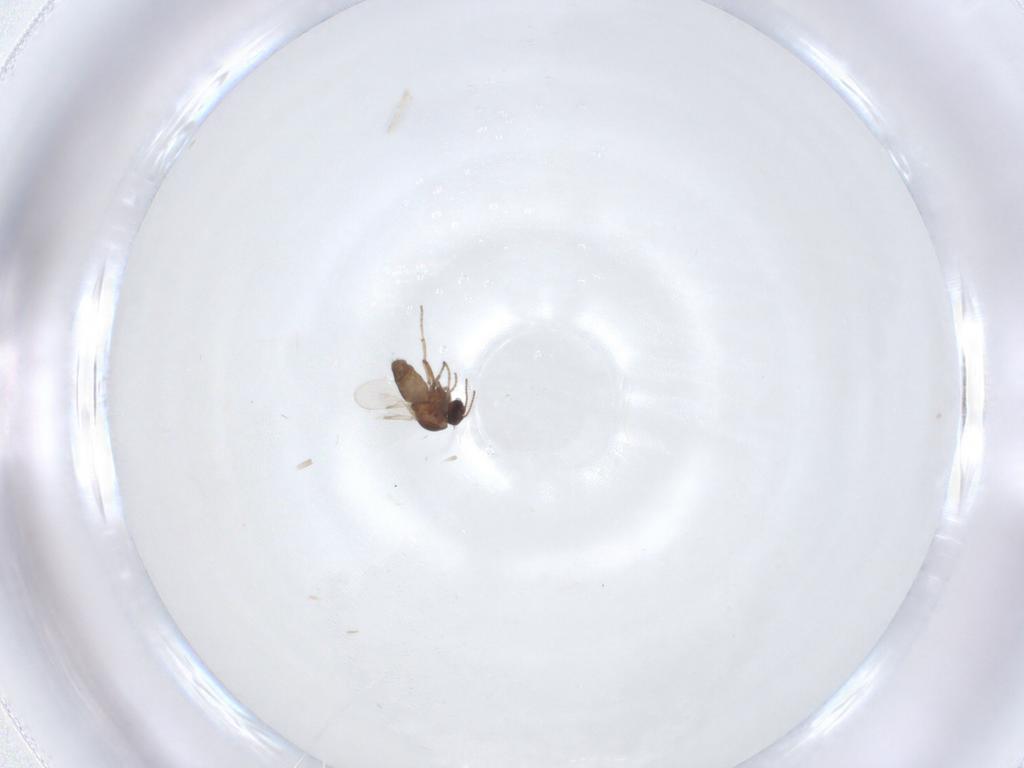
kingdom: Animalia
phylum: Arthropoda
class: Insecta
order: Diptera
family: Ceratopogonidae
